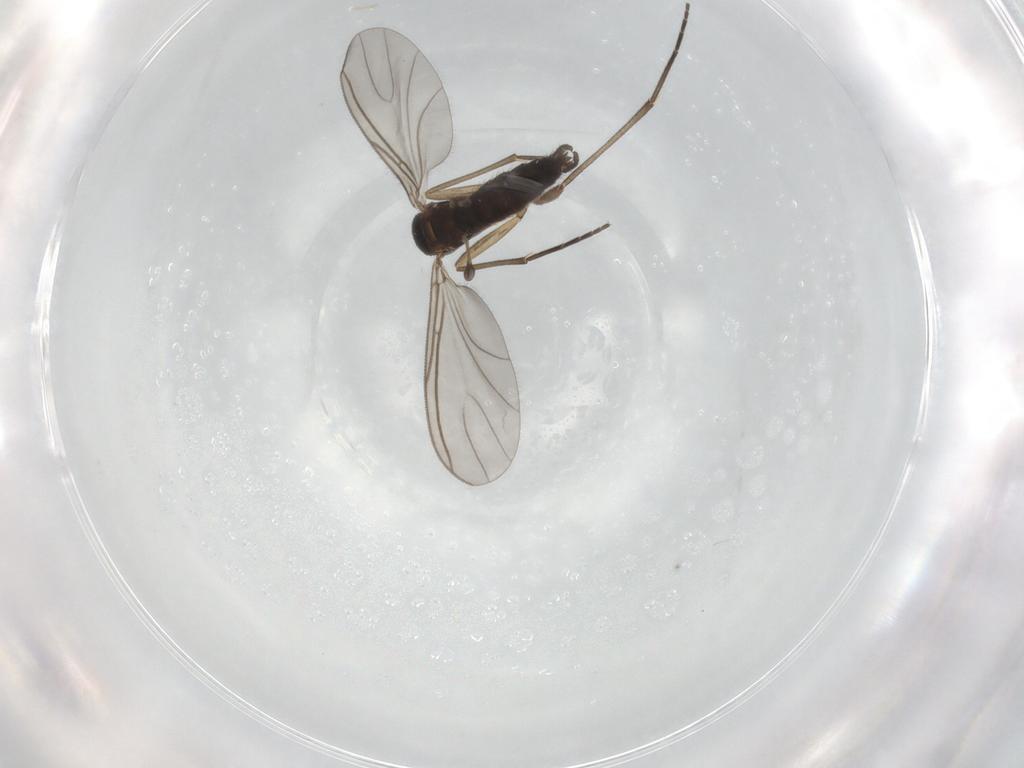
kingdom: Animalia
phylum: Arthropoda
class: Insecta
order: Diptera
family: Sciaridae
